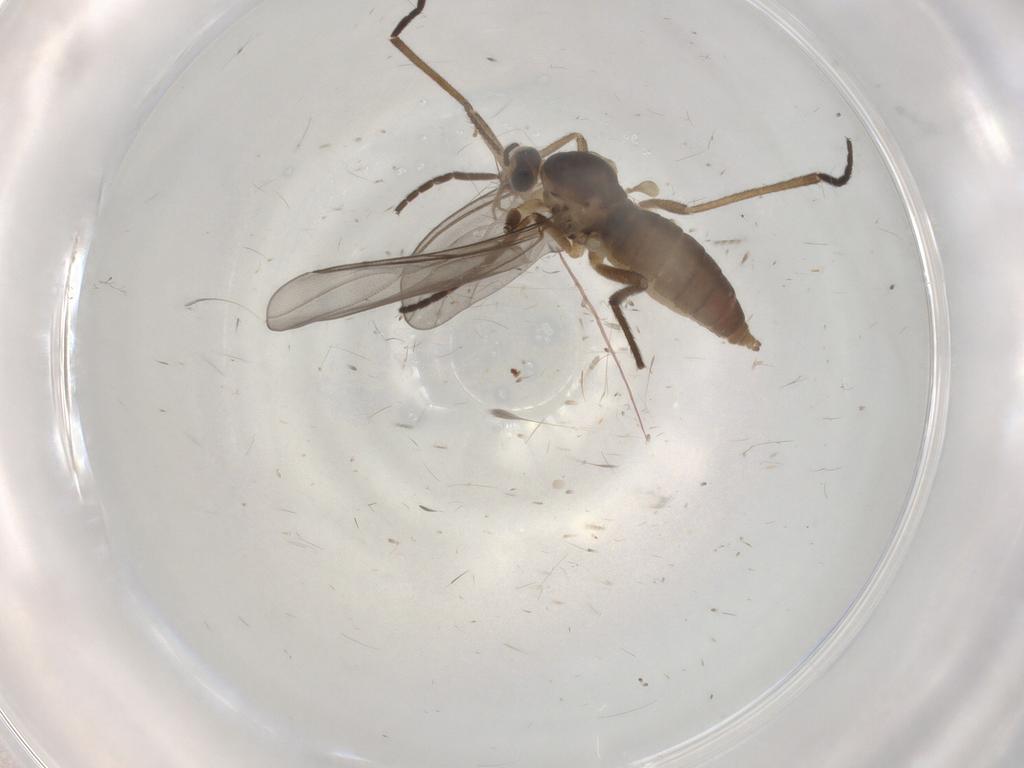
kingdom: Animalia
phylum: Arthropoda
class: Insecta
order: Diptera
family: Cecidomyiidae
